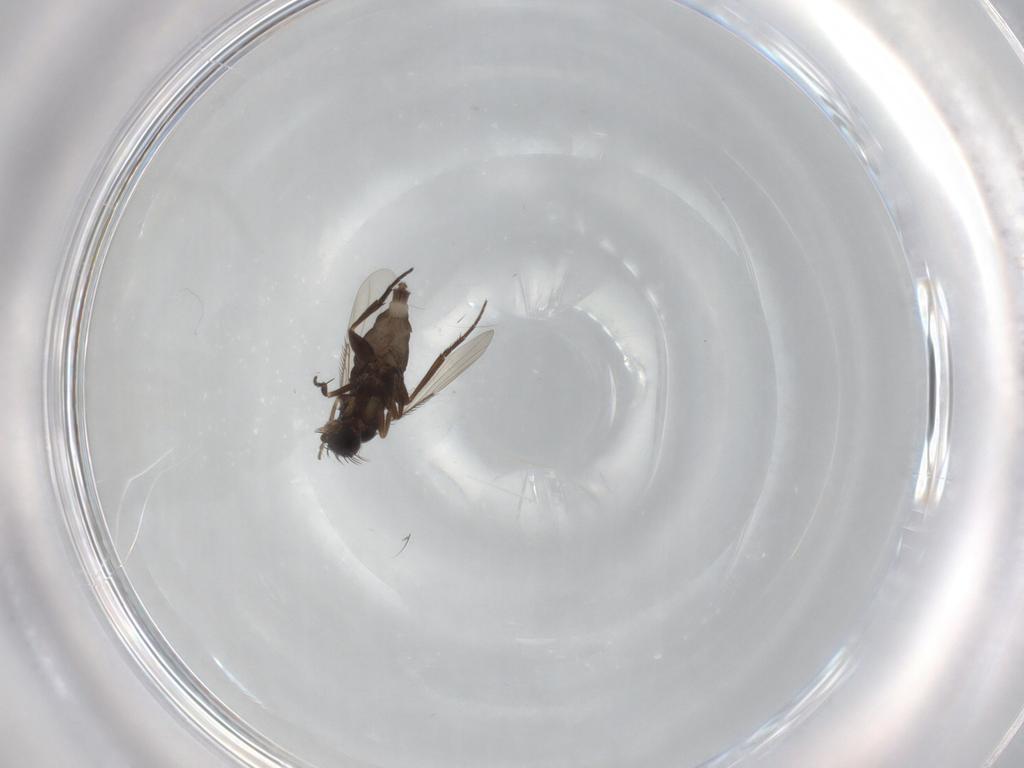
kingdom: Animalia
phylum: Arthropoda
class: Insecta
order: Diptera
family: Phoridae
